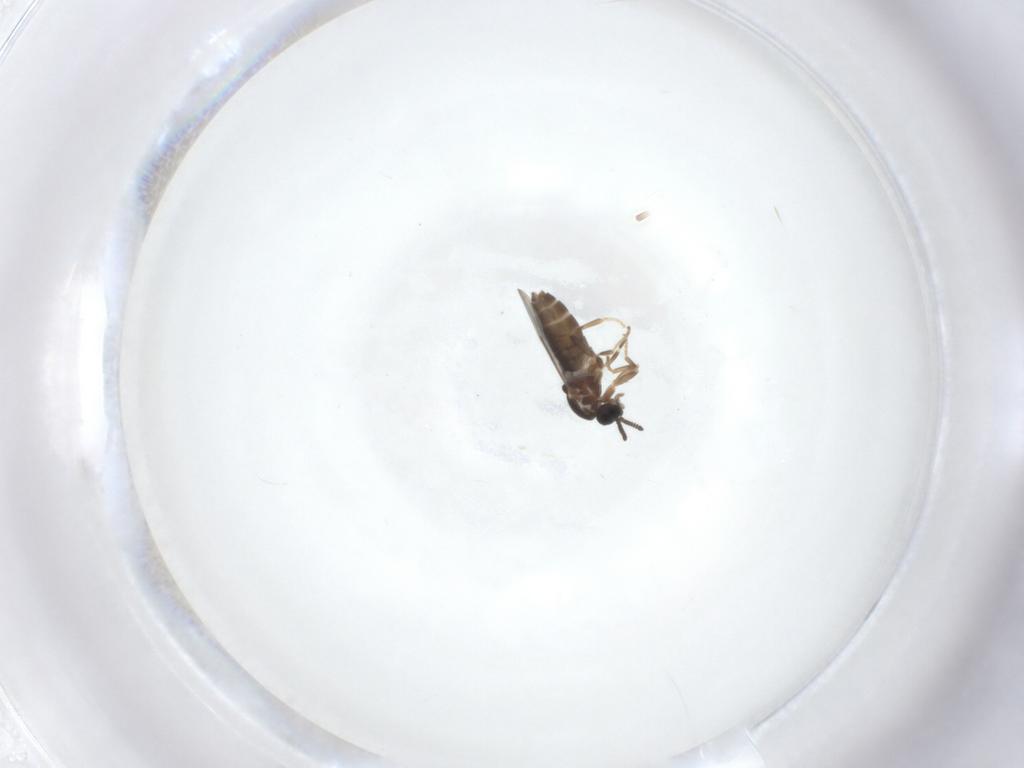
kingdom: Animalia
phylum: Arthropoda
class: Insecta
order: Diptera
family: Scatopsidae
